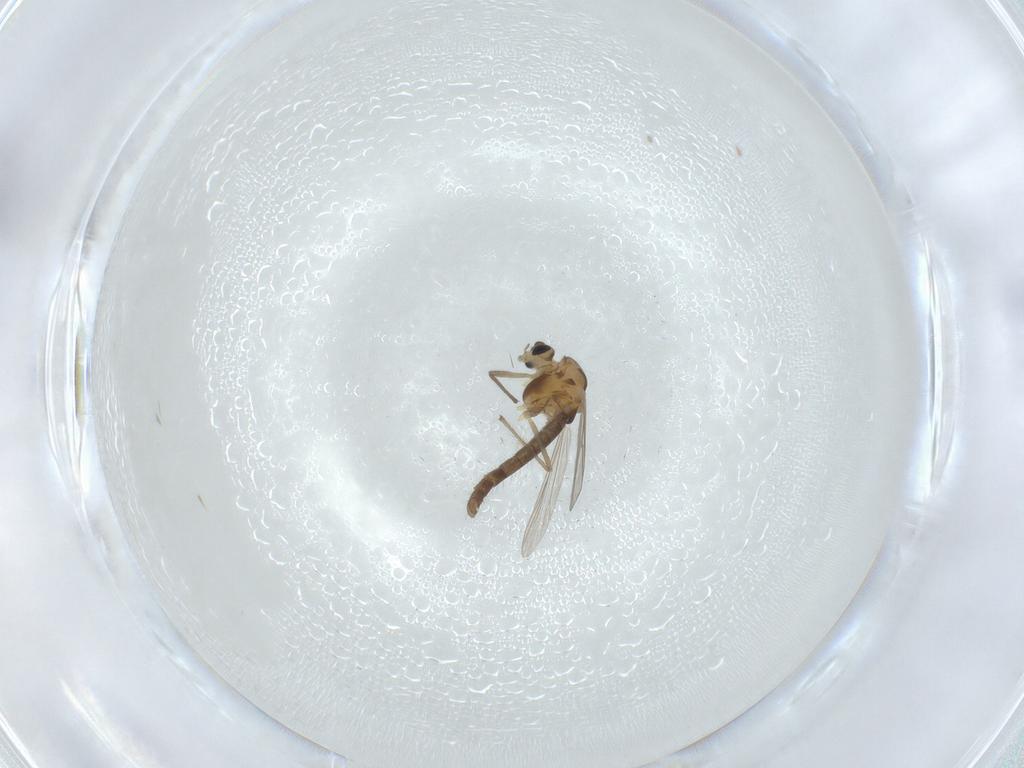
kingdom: Animalia
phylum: Arthropoda
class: Insecta
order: Diptera
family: Chironomidae
